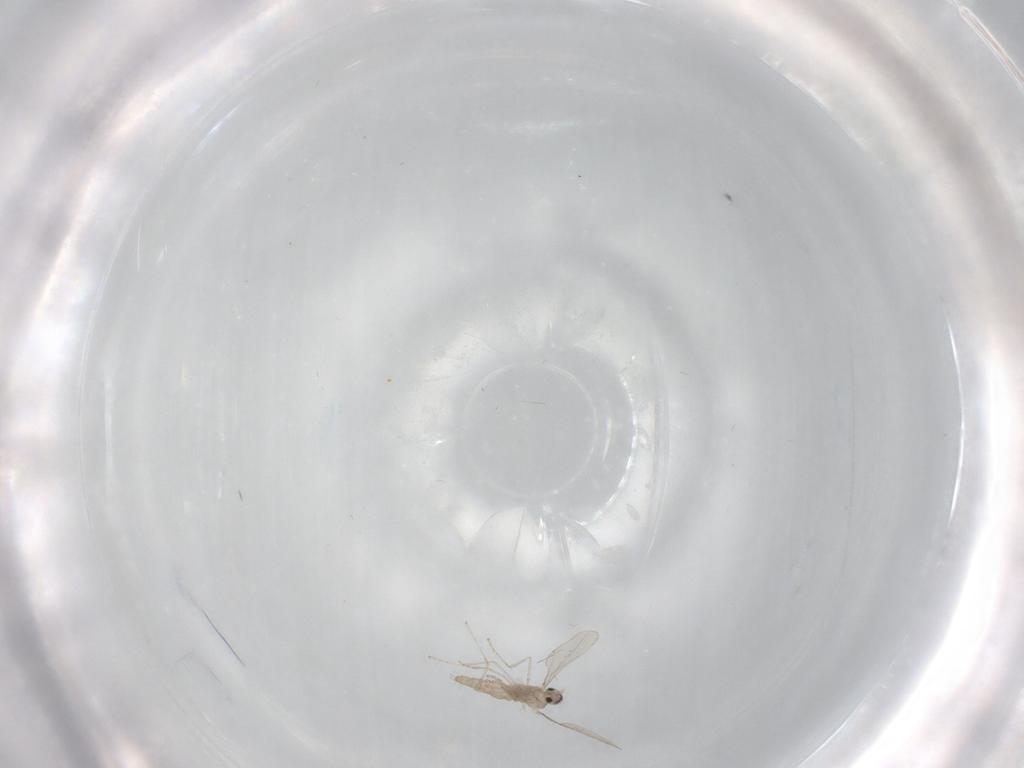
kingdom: Animalia
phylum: Arthropoda
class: Insecta
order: Diptera
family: Cecidomyiidae
